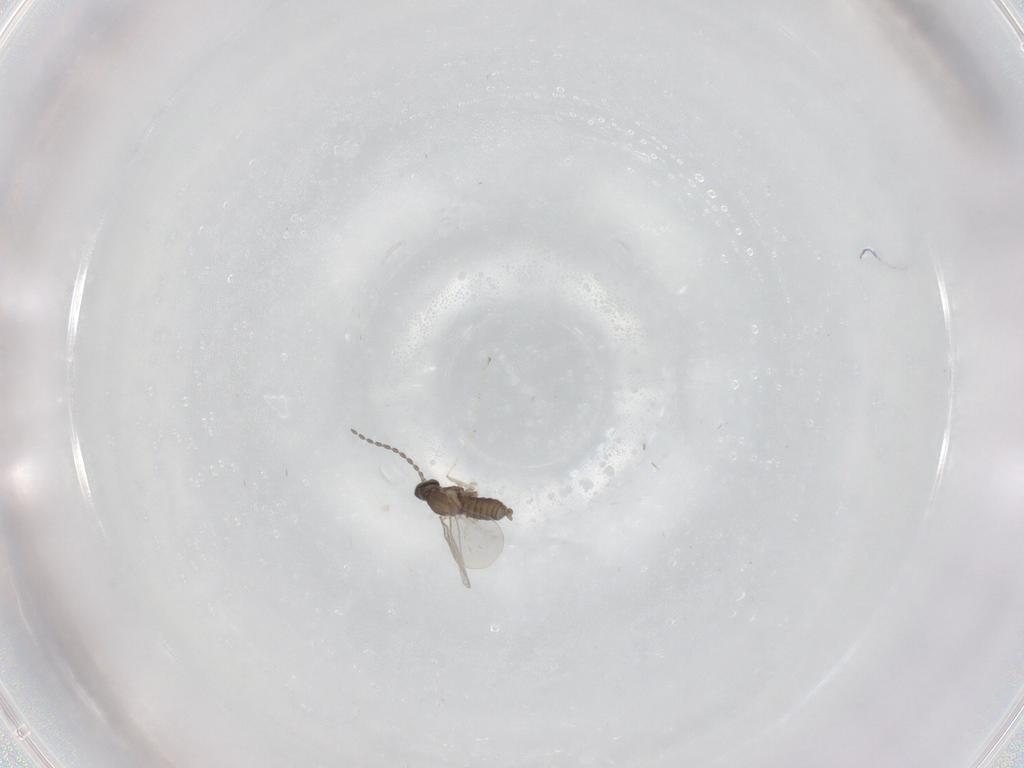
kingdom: Animalia
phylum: Arthropoda
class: Insecta
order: Diptera
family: Cecidomyiidae
